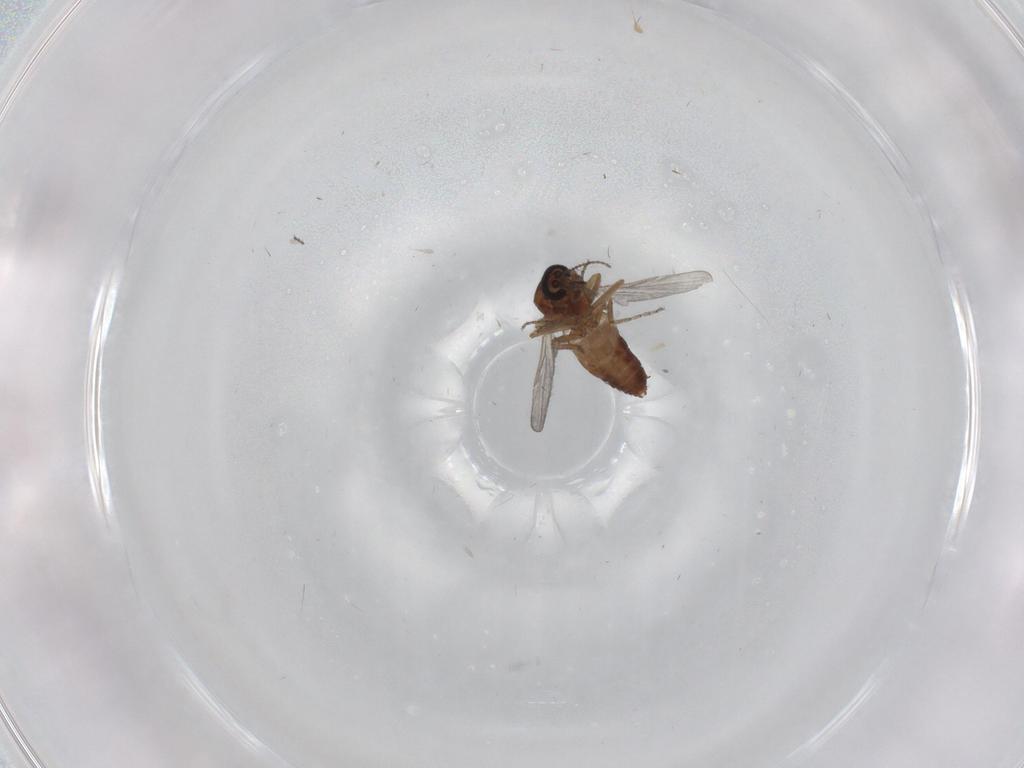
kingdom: Animalia
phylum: Arthropoda
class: Insecta
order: Diptera
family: Ceratopogonidae
